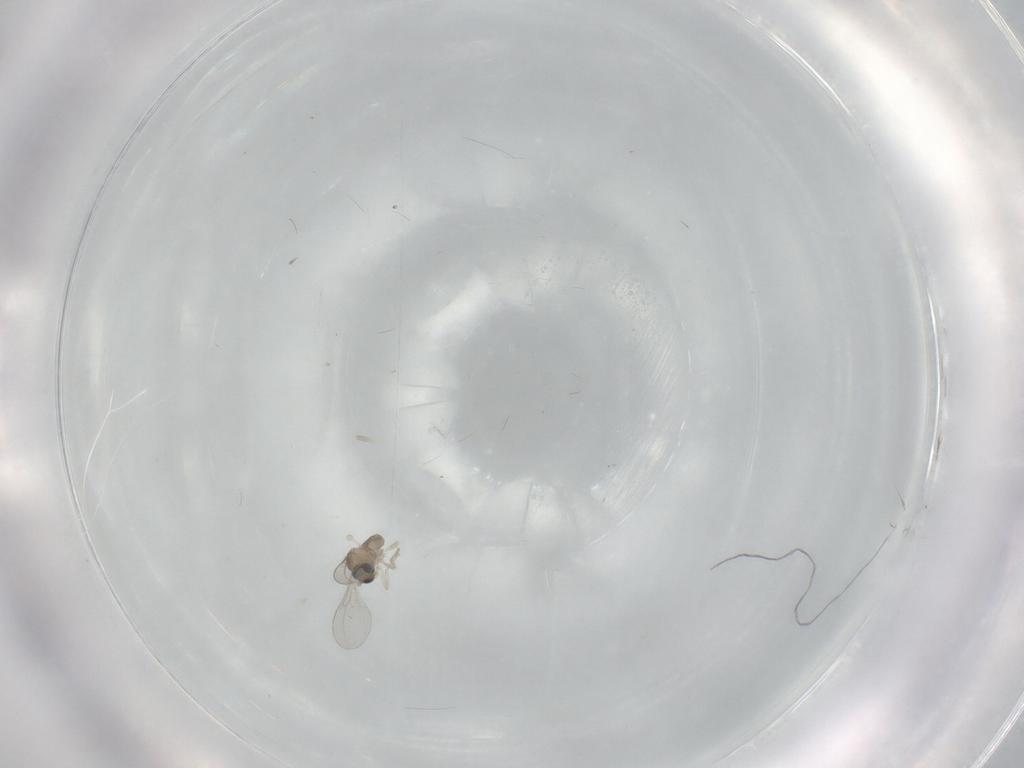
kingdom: Animalia
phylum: Arthropoda
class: Insecta
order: Diptera
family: Cecidomyiidae
